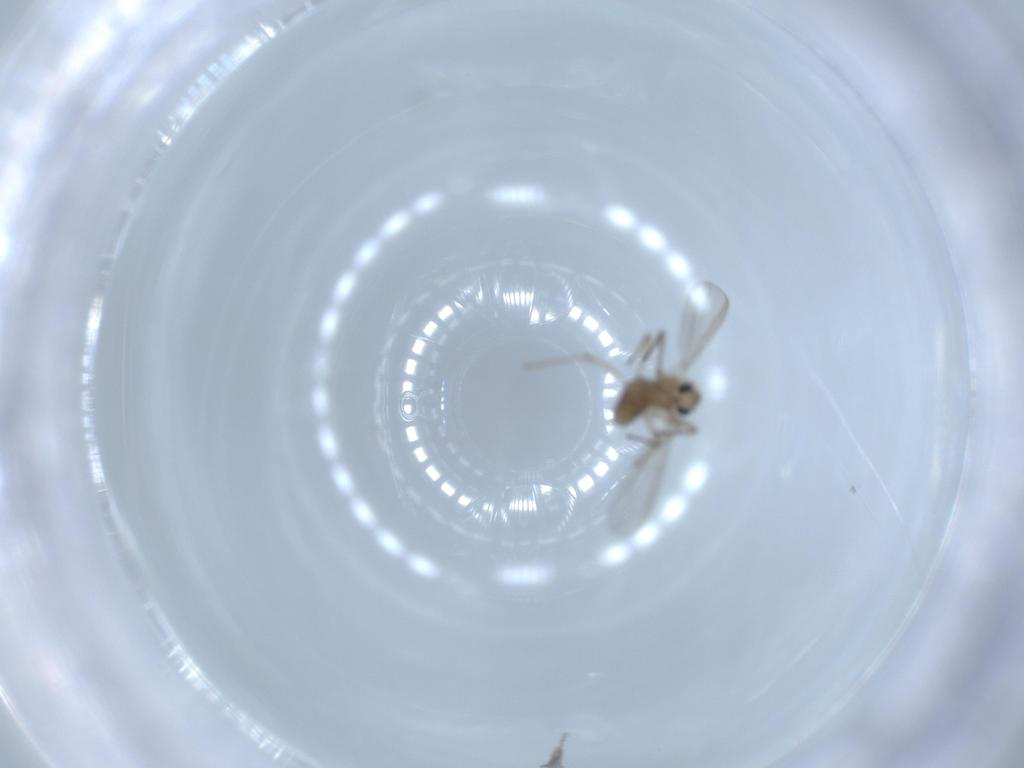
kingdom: Animalia
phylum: Arthropoda
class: Insecta
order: Diptera
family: Chironomidae
